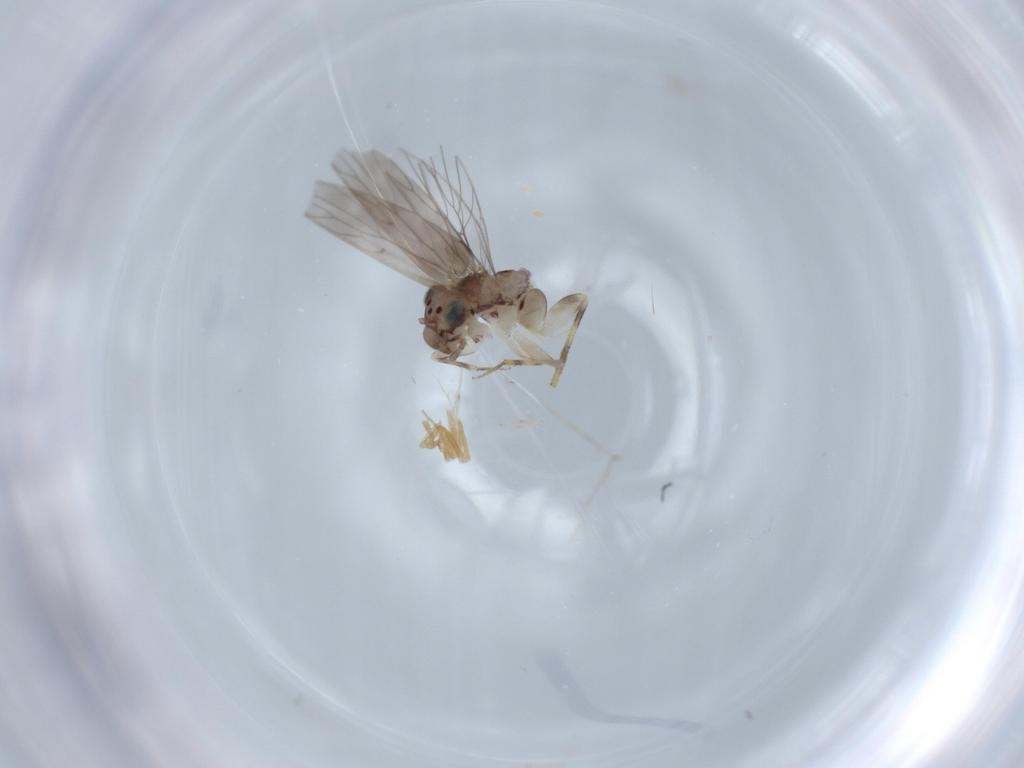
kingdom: Animalia
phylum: Arthropoda
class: Insecta
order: Psocodea
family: Lepidopsocidae
